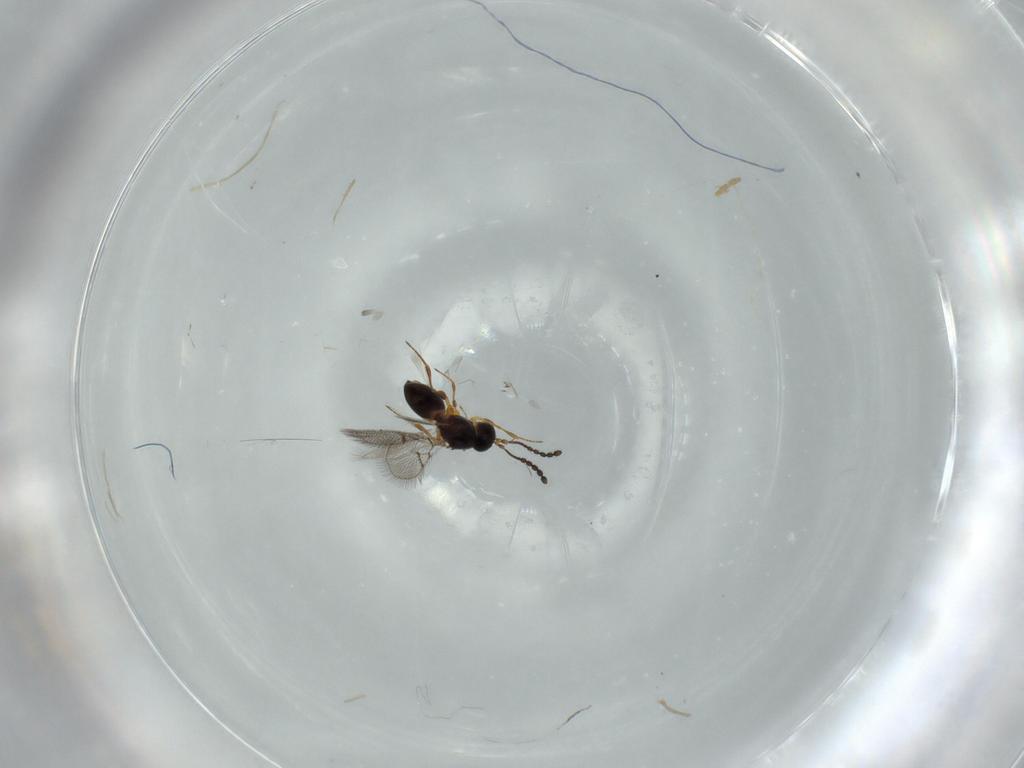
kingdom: Animalia
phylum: Arthropoda
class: Insecta
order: Hymenoptera
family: Figitidae
